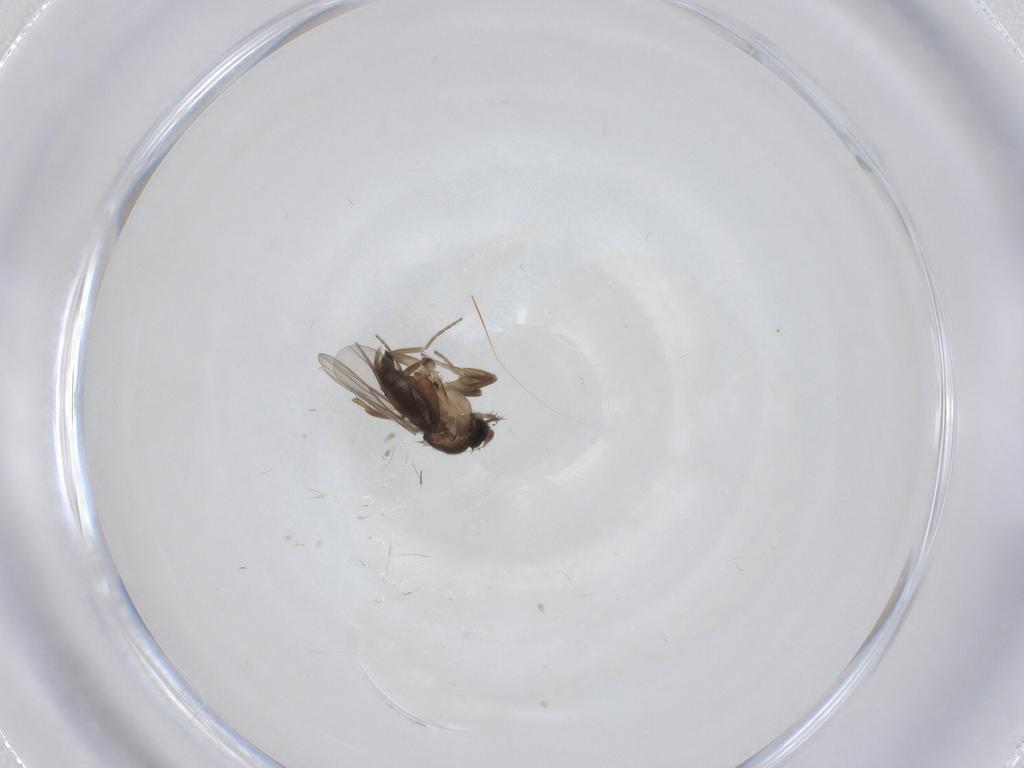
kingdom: Animalia
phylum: Arthropoda
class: Insecta
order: Diptera
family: Phoridae
